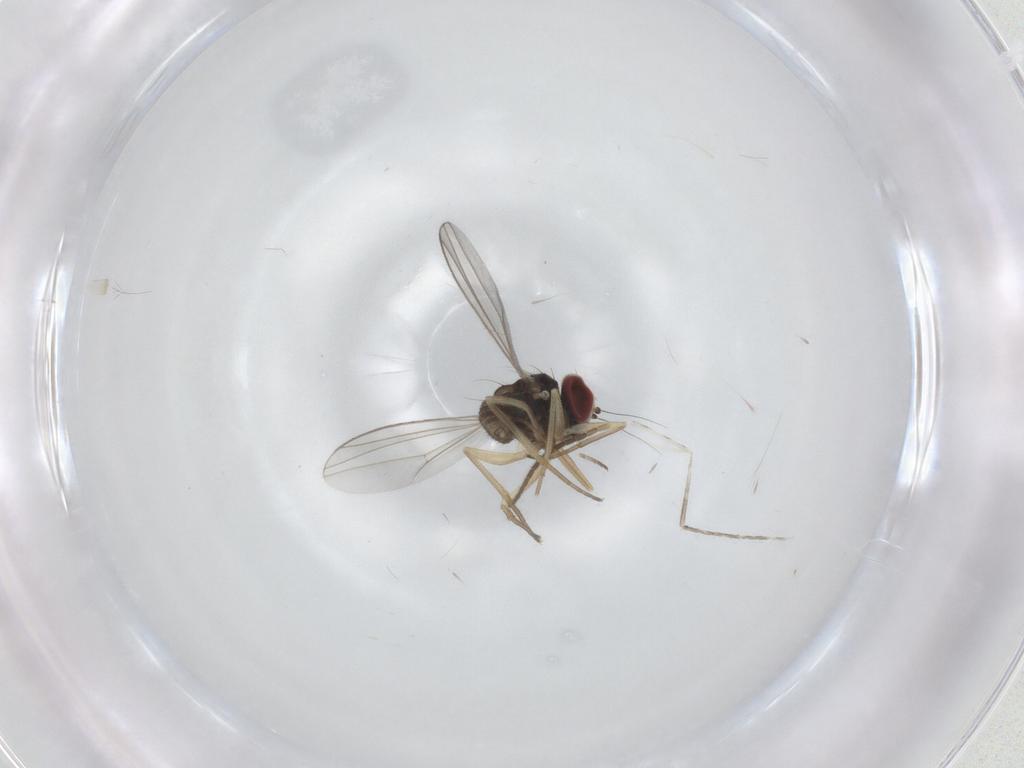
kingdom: Animalia
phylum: Arthropoda
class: Insecta
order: Diptera
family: Sciaridae
